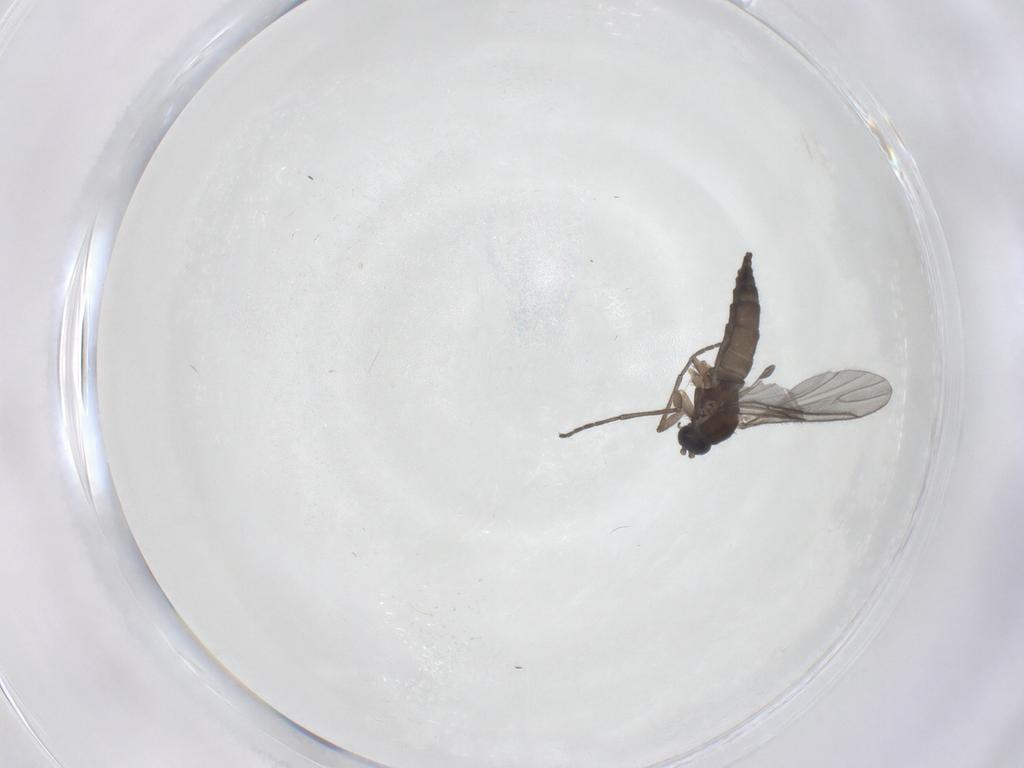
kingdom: Animalia
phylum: Arthropoda
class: Insecta
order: Diptera
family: Sciaridae
